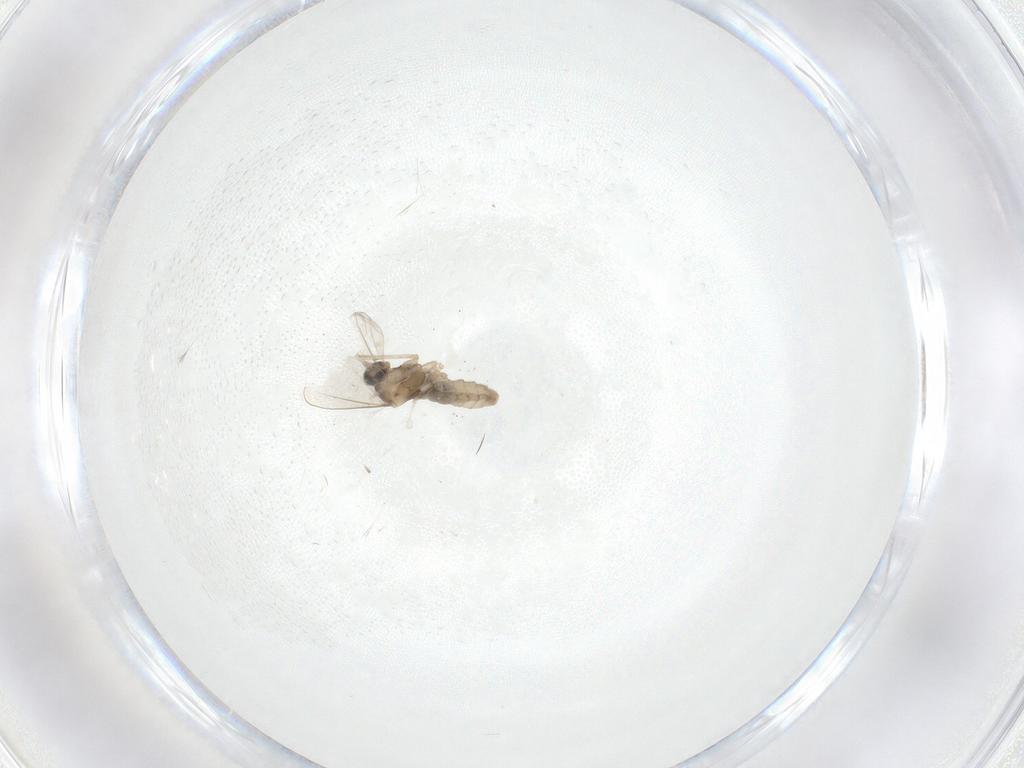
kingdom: Animalia
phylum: Arthropoda
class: Insecta
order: Diptera
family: Cecidomyiidae
